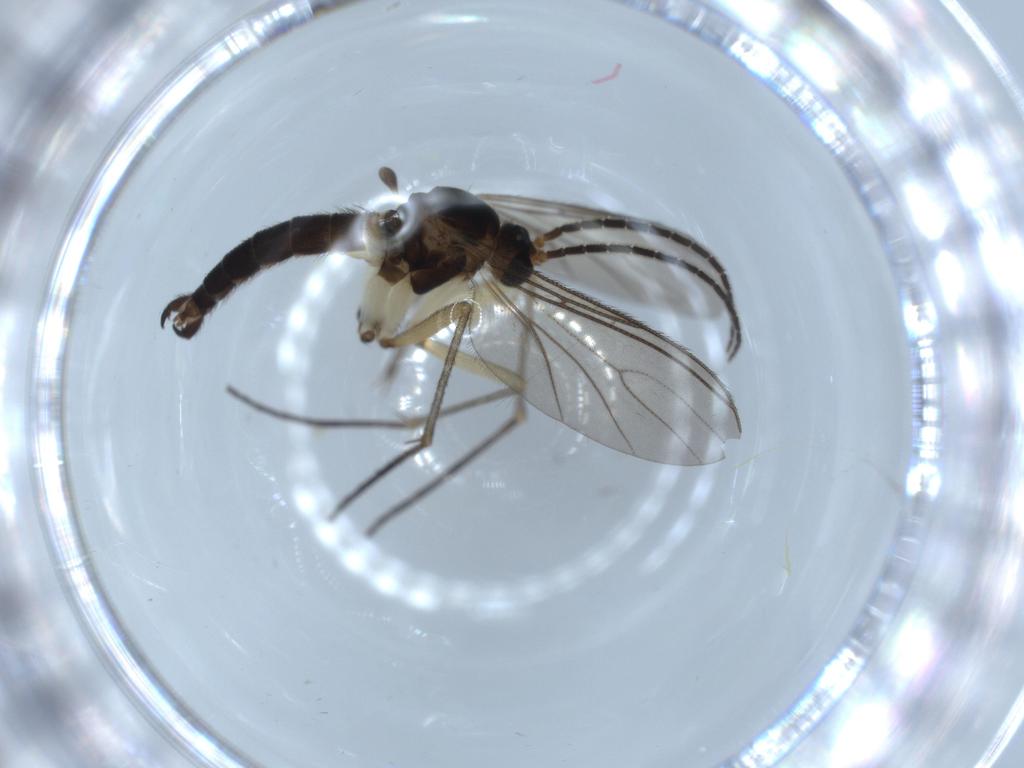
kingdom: Animalia
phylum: Arthropoda
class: Insecta
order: Diptera
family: Sciaridae
